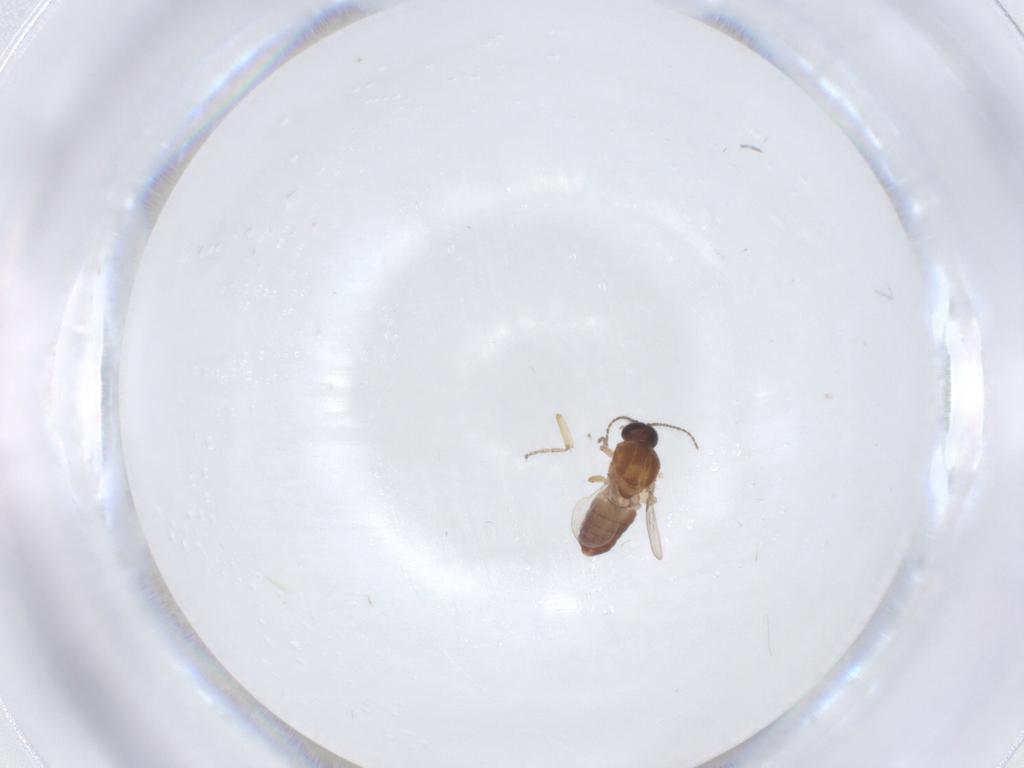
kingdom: Animalia
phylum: Arthropoda
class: Insecta
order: Diptera
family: Ceratopogonidae
